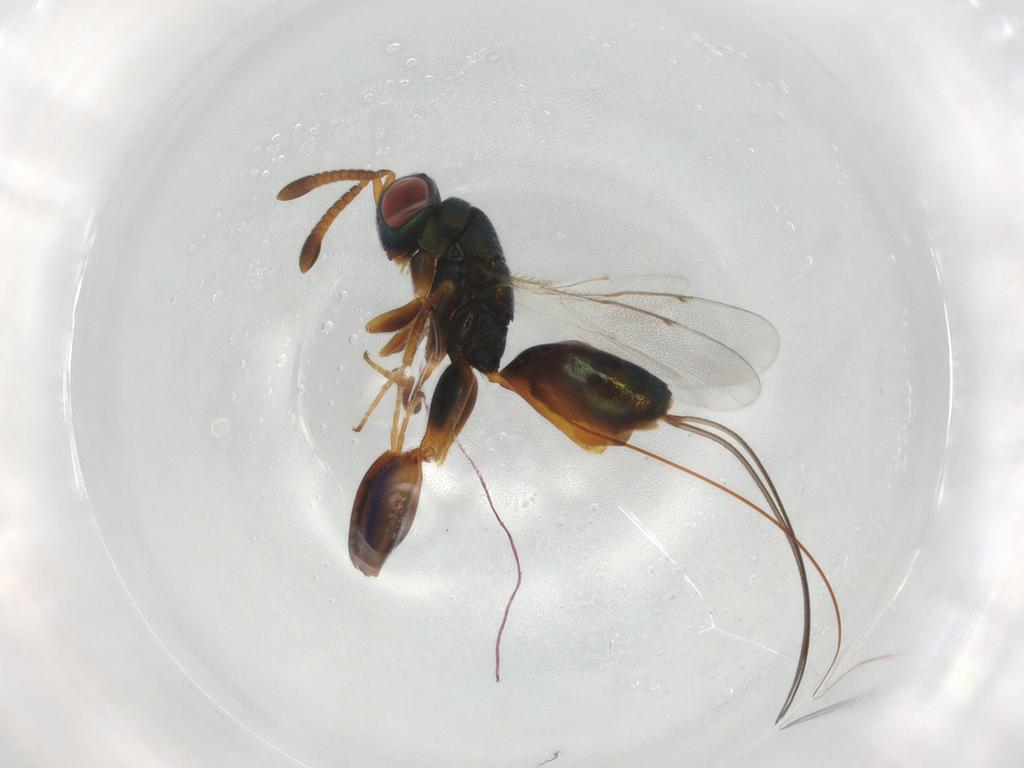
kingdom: Animalia
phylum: Arthropoda
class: Insecta
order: Hymenoptera
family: Torymidae
